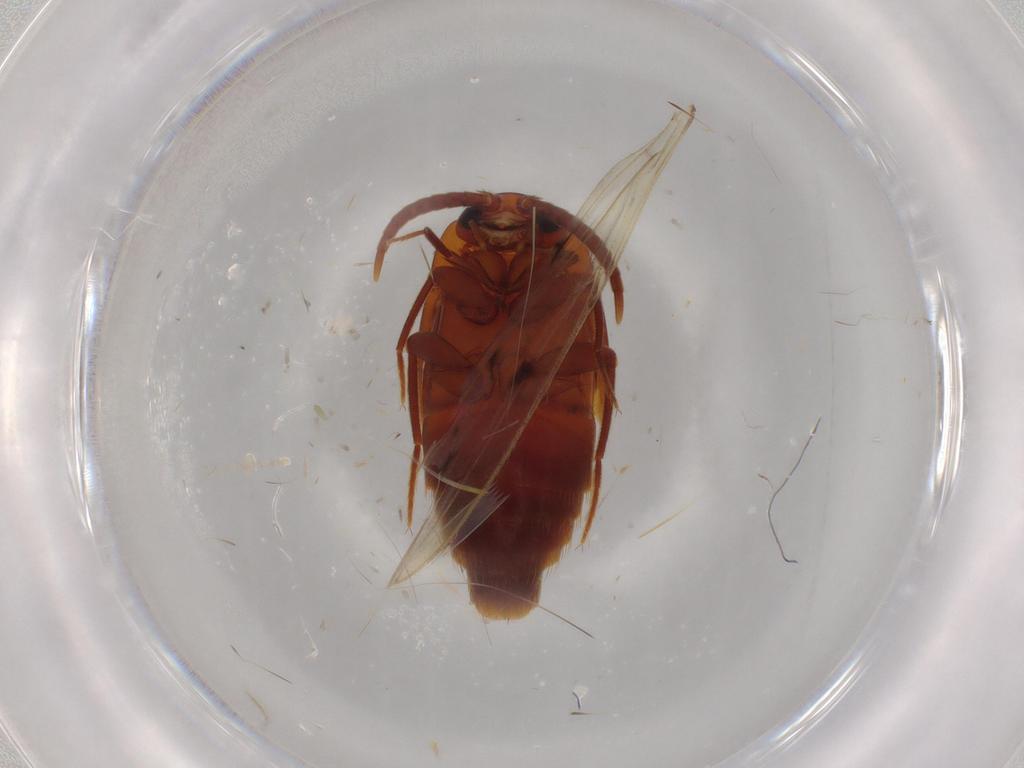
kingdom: Animalia
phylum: Arthropoda
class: Insecta
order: Coleoptera
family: Staphylinidae
